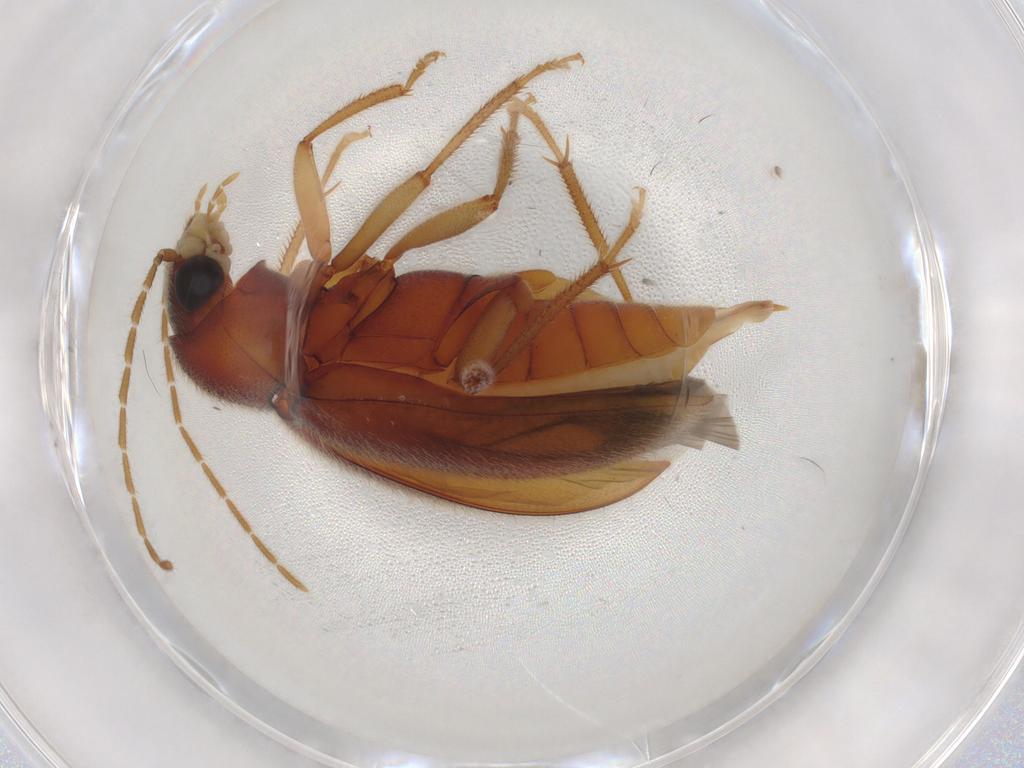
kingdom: Animalia
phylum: Arthropoda
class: Insecta
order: Coleoptera
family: Ptilodactylidae
